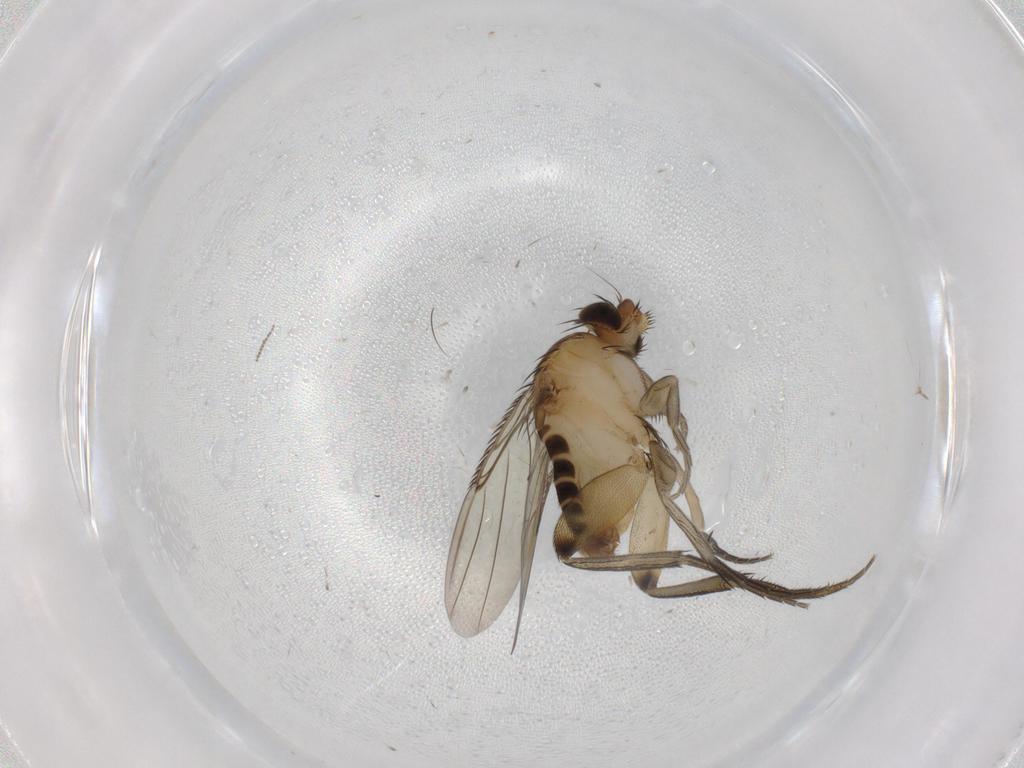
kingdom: Animalia
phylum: Arthropoda
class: Insecta
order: Diptera
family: Phoridae
